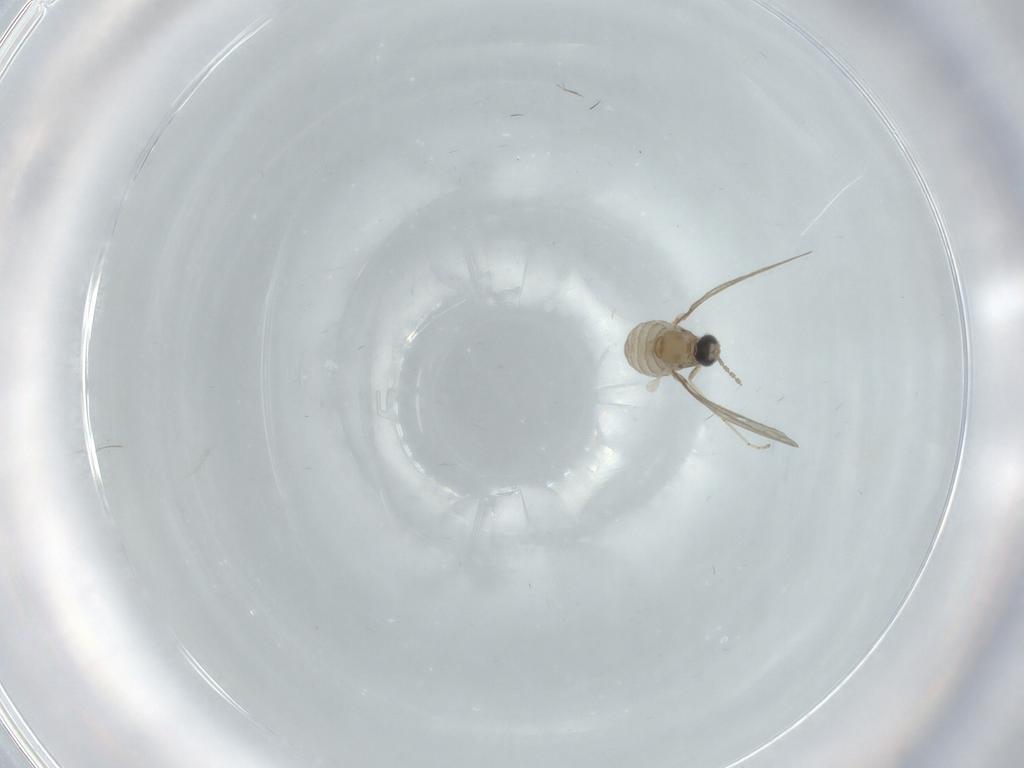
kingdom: Animalia
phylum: Arthropoda
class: Insecta
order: Diptera
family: Cecidomyiidae
